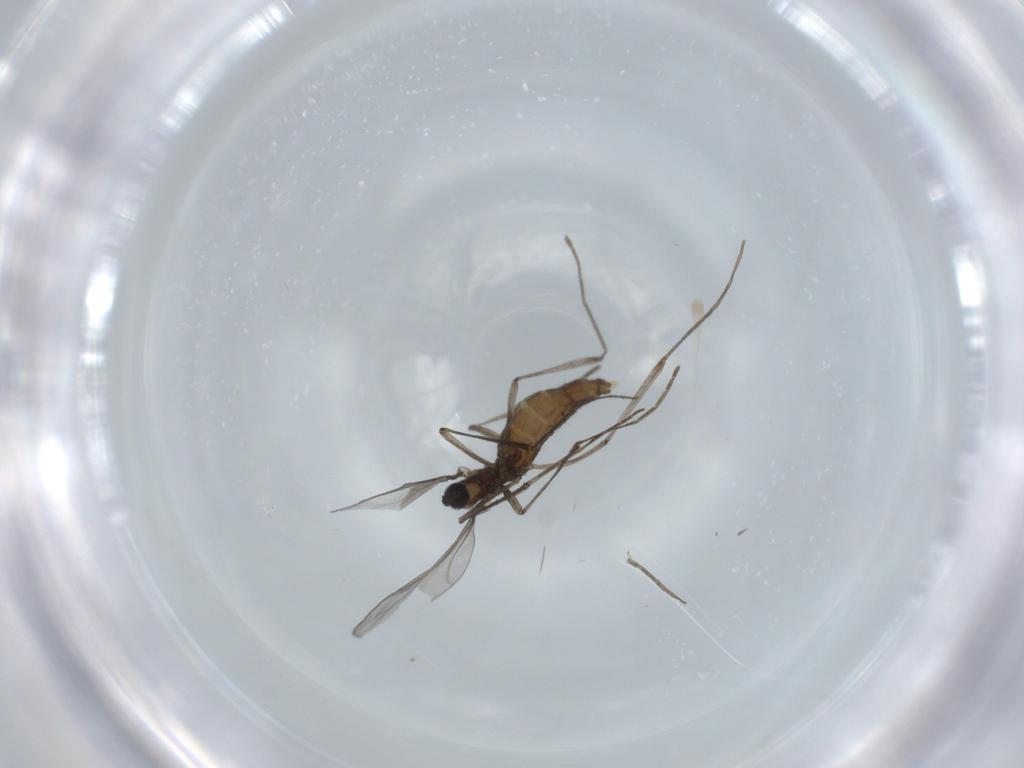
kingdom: Animalia
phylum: Arthropoda
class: Insecta
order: Diptera
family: Cecidomyiidae
